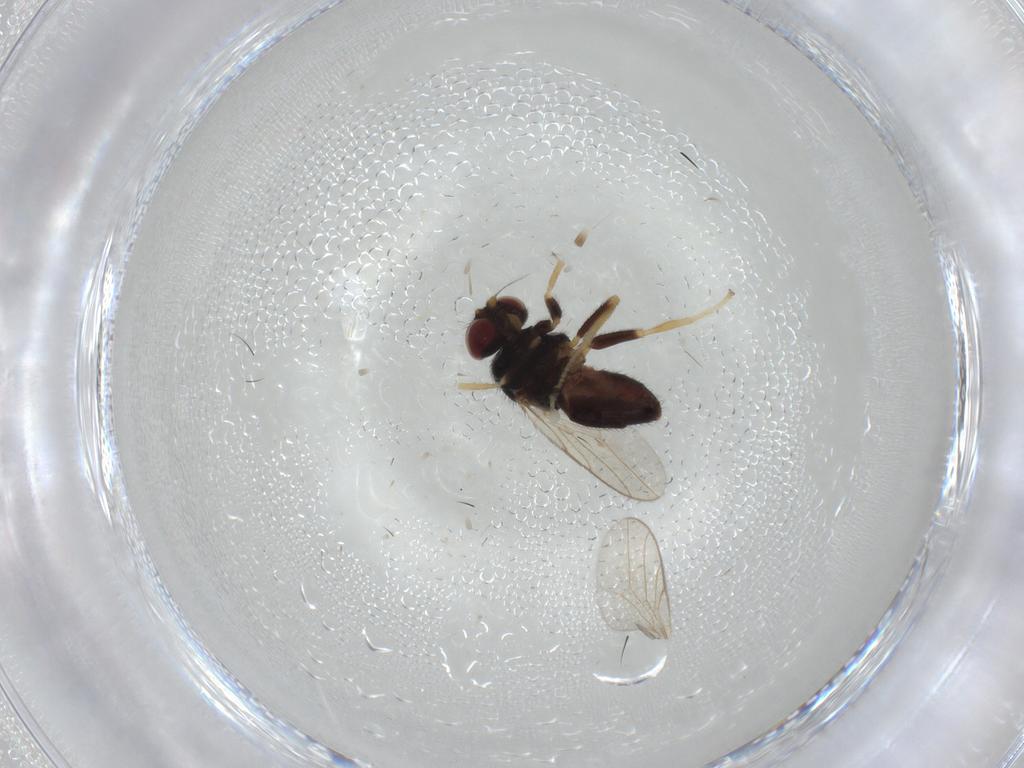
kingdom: Animalia
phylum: Arthropoda
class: Insecta
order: Diptera
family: Chloropidae
